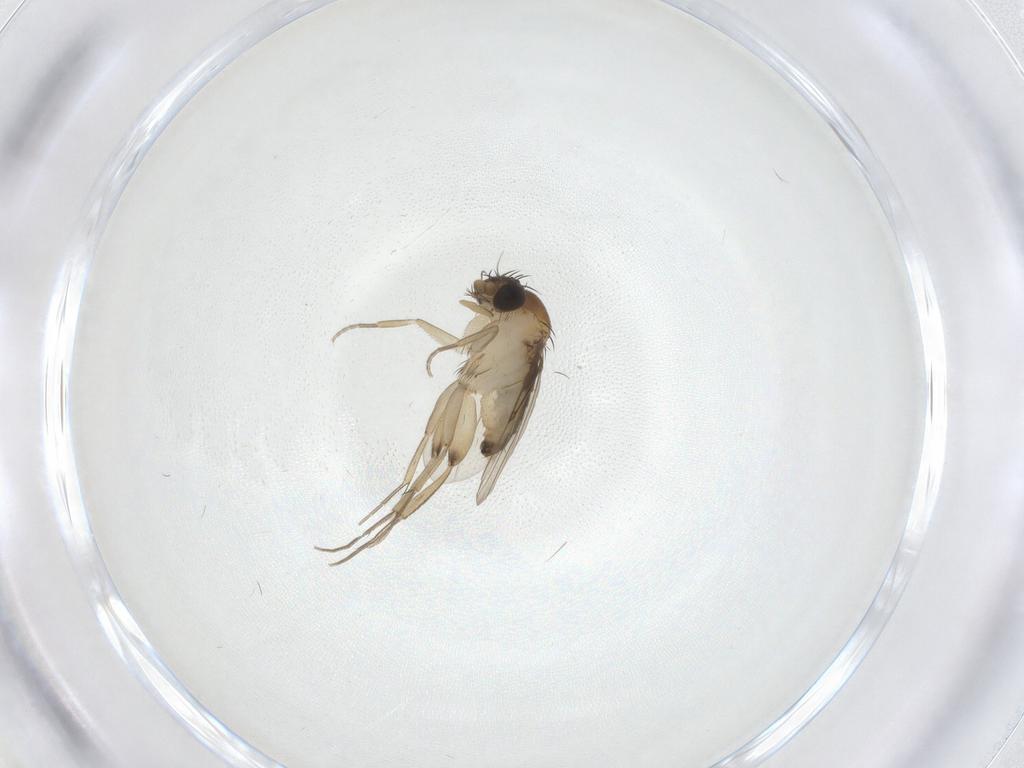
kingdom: Animalia
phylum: Arthropoda
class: Insecta
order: Diptera
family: Phoridae
